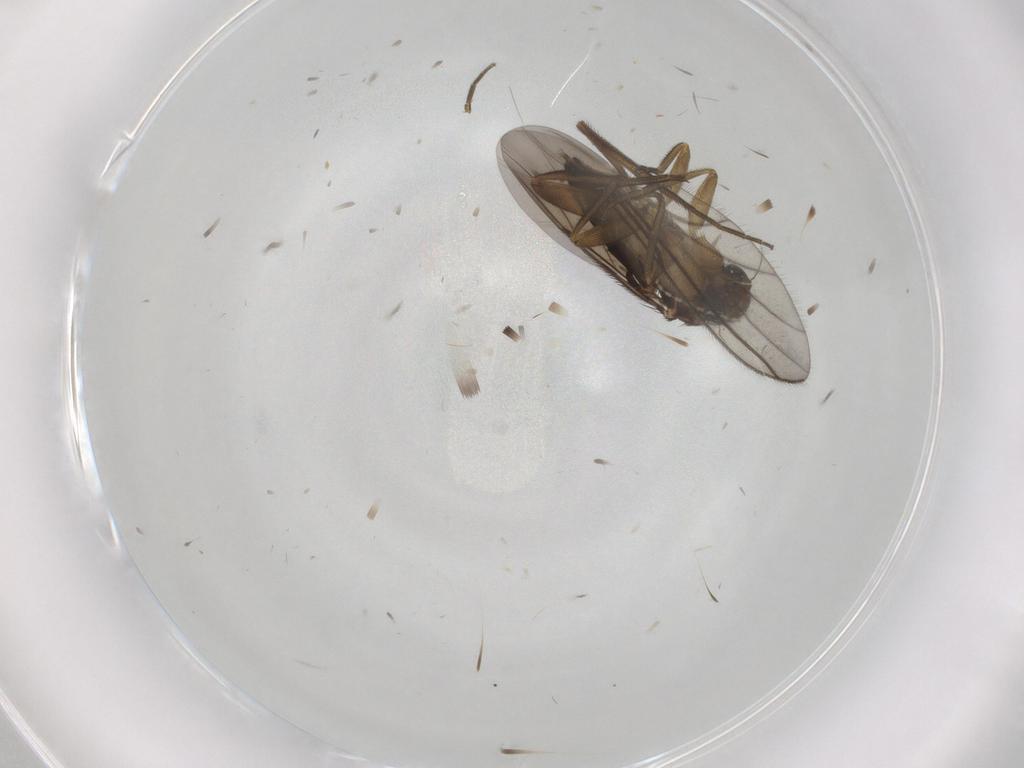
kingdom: Animalia
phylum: Arthropoda
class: Insecta
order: Diptera
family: Phoridae
